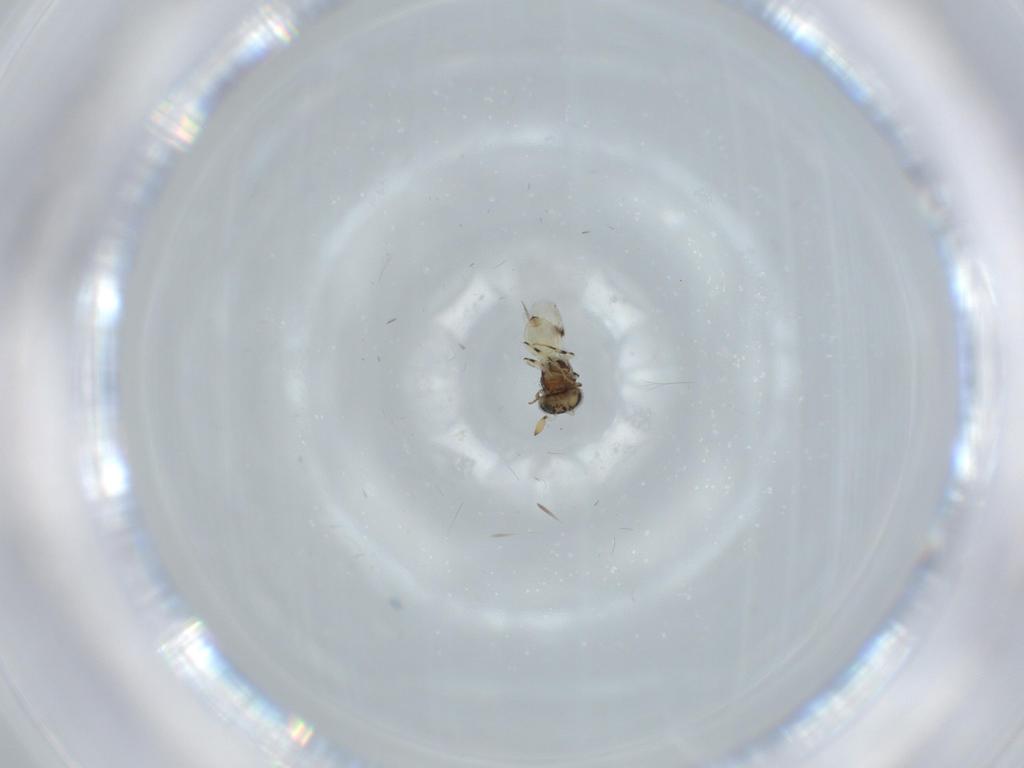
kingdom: Animalia
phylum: Arthropoda
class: Insecta
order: Hymenoptera
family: Scelionidae
